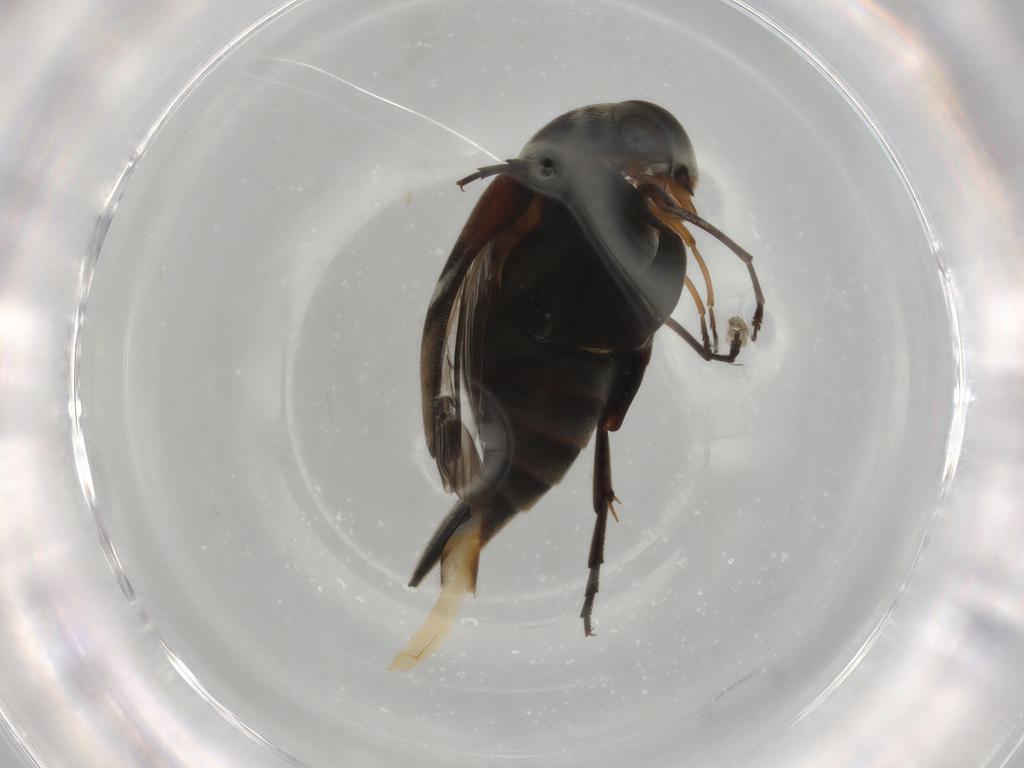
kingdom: Animalia
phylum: Arthropoda
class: Insecta
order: Coleoptera
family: Mordellidae
